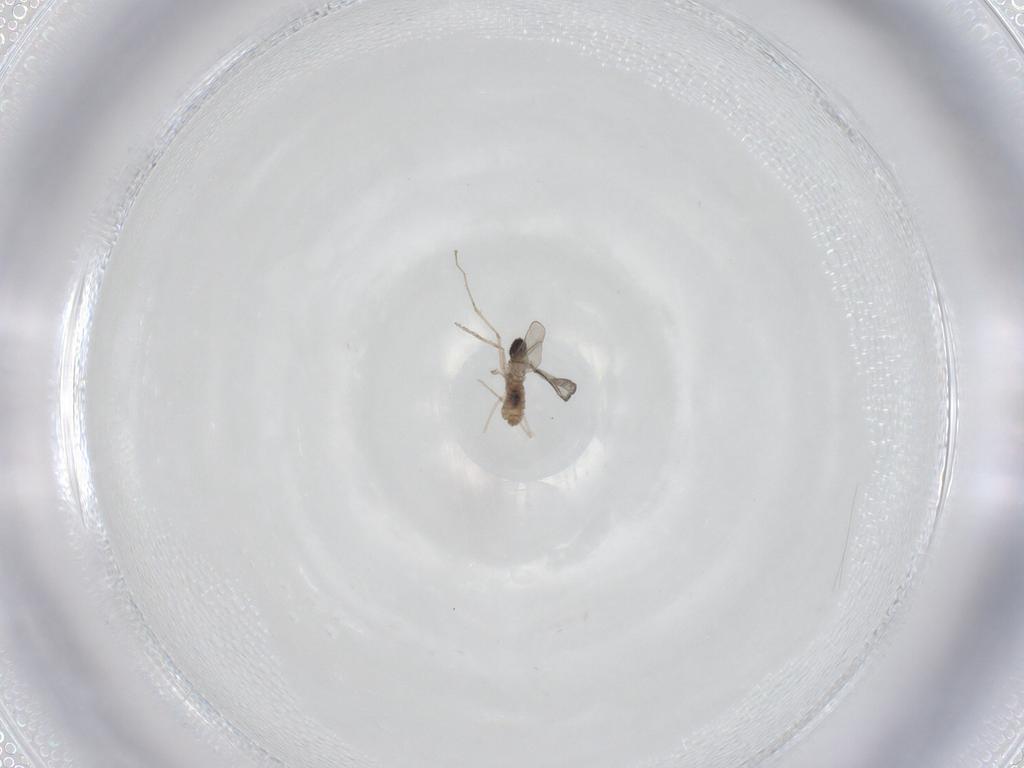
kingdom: Animalia
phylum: Arthropoda
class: Insecta
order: Diptera
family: Cecidomyiidae
